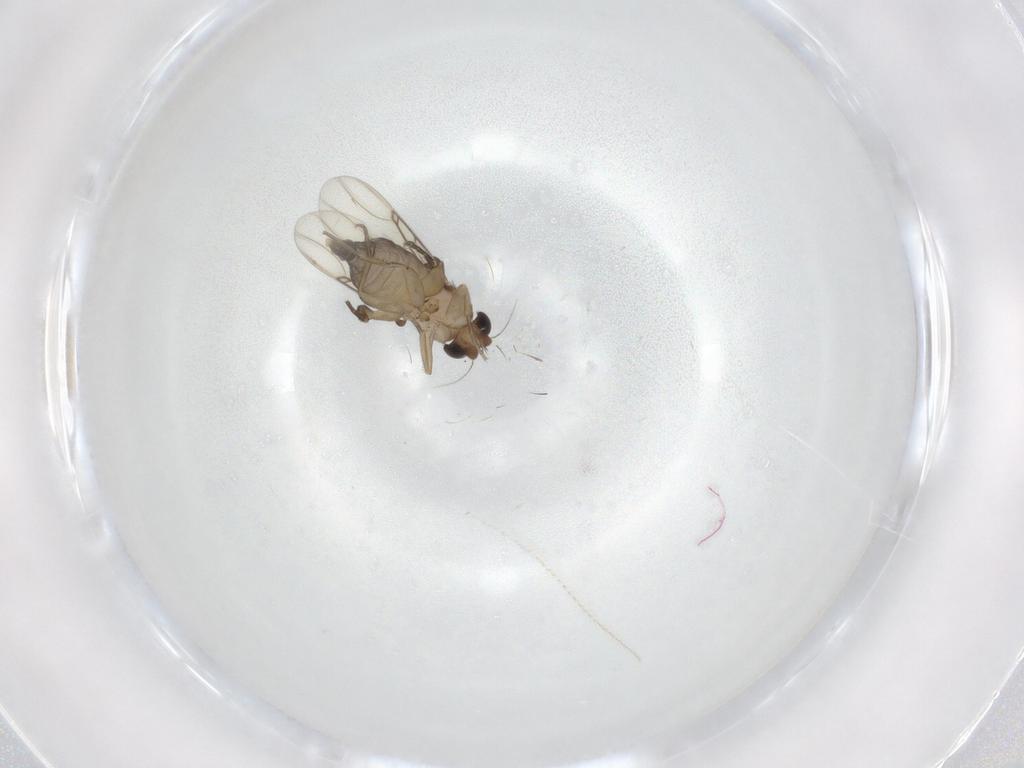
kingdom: Animalia
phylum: Arthropoda
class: Insecta
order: Diptera
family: Phoridae
